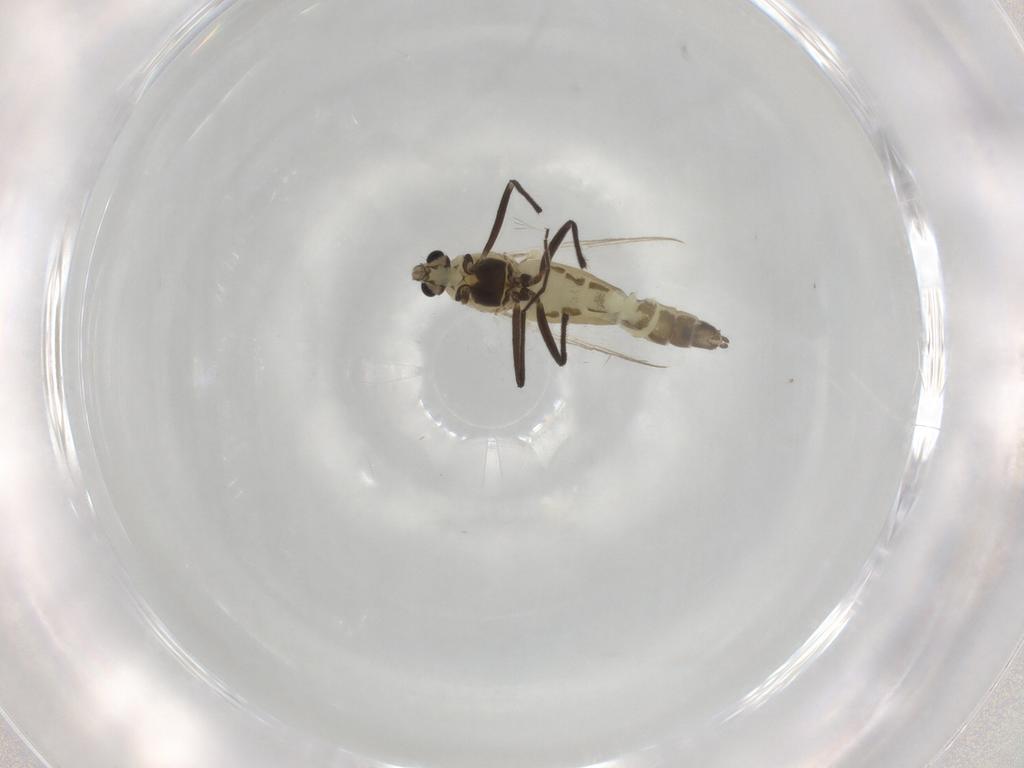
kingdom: Animalia
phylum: Arthropoda
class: Insecta
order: Diptera
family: Chironomidae
